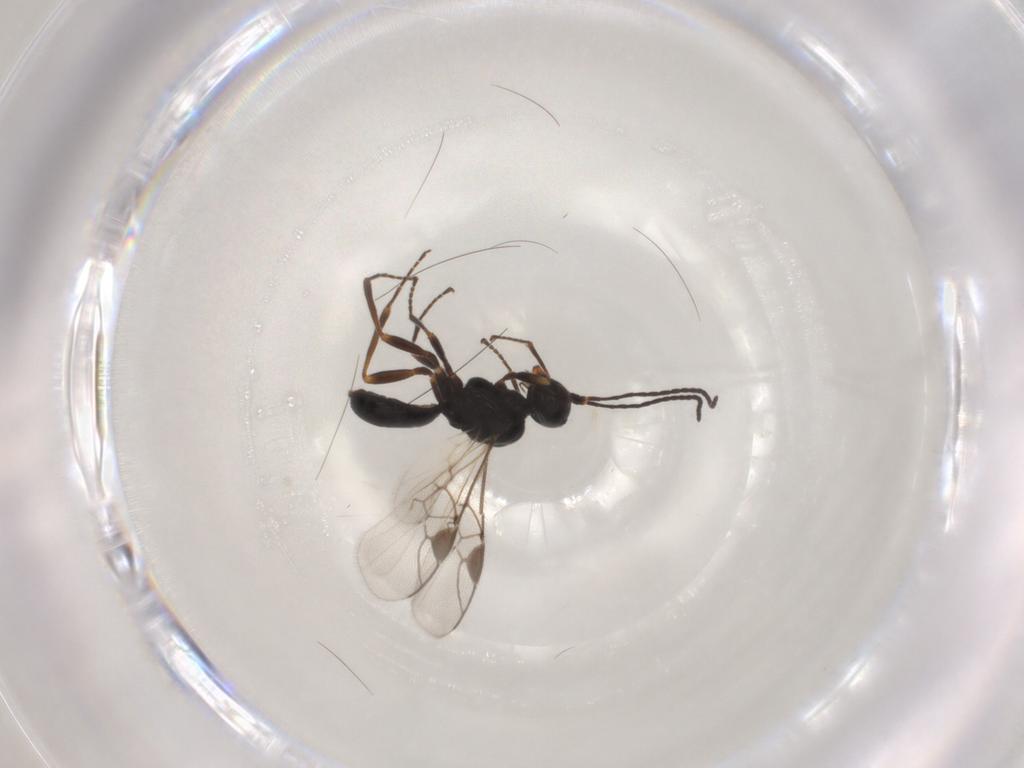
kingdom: Animalia
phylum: Arthropoda
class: Insecta
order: Hymenoptera
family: Braconidae
